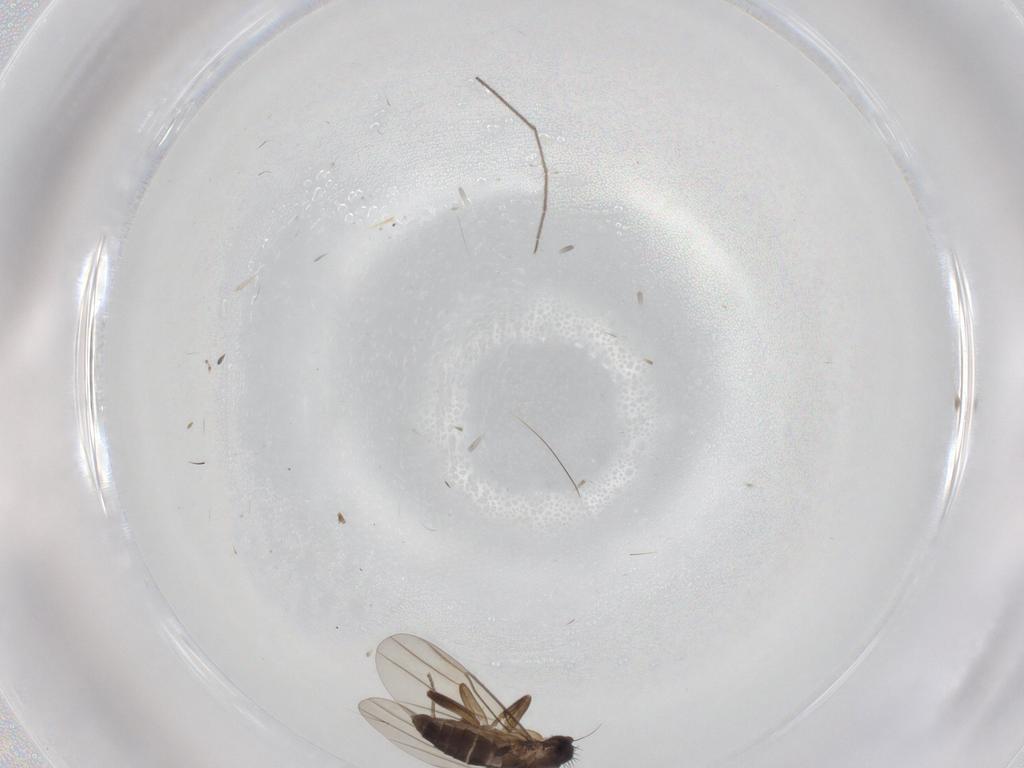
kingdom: Animalia
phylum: Arthropoda
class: Insecta
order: Diptera
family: Phoridae
